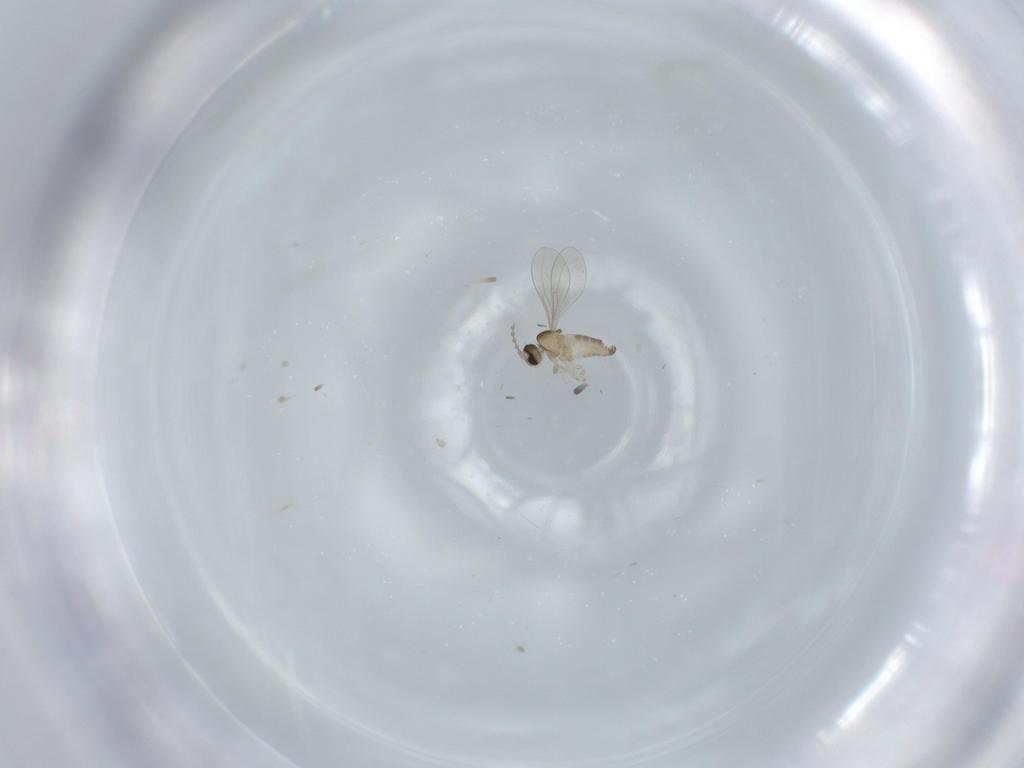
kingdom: Animalia
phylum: Arthropoda
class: Insecta
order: Diptera
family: Cecidomyiidae
